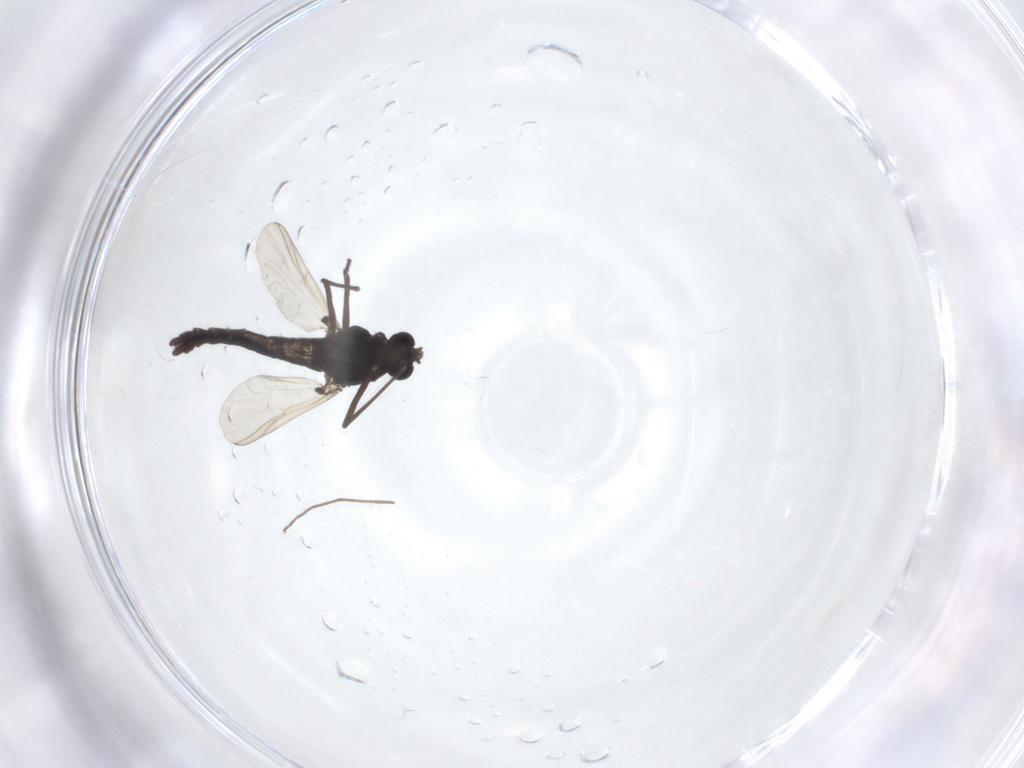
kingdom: Animalia
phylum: Arthropoda
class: Insecta
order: Diptera
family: Chironomidae
